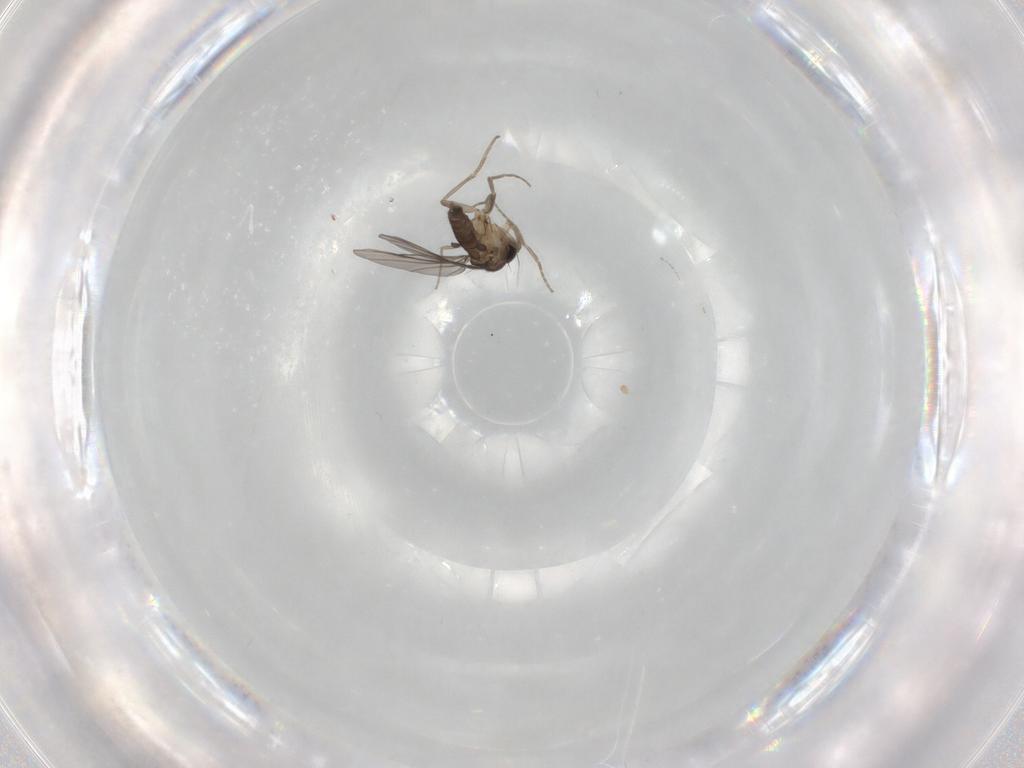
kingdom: Animalia
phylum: Arthropoda
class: Insecta
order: Diptera
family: Phoridae
